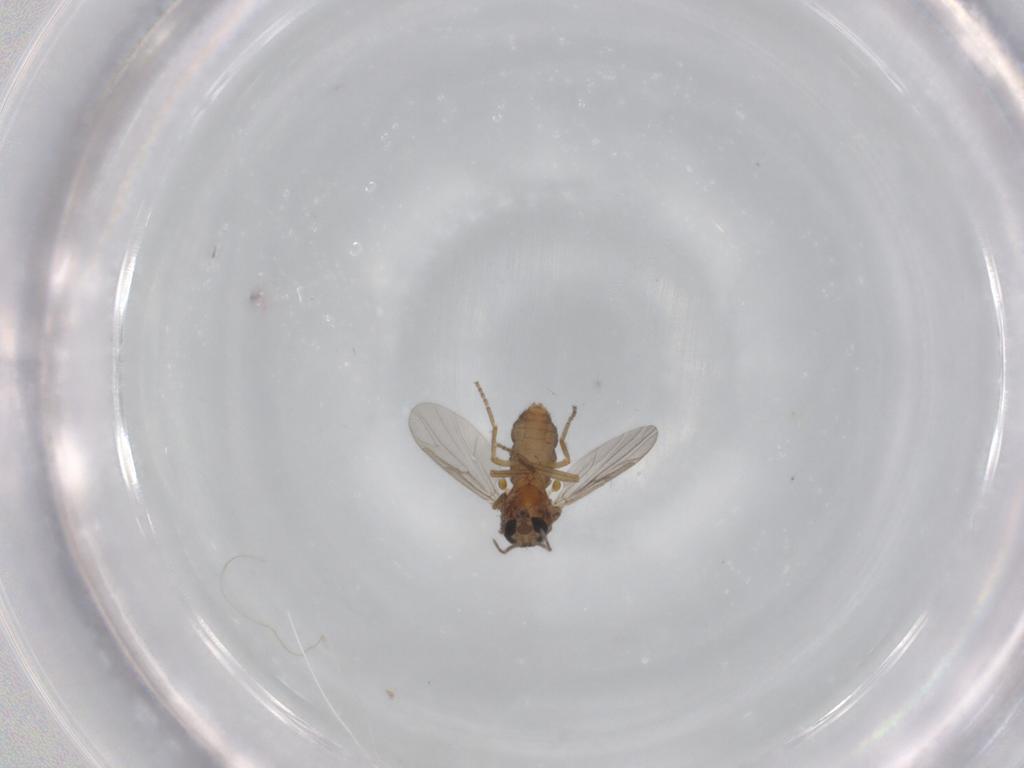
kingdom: Animalia
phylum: Arthropoda
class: Insecta
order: Diptera
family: Ceratopogonidae
